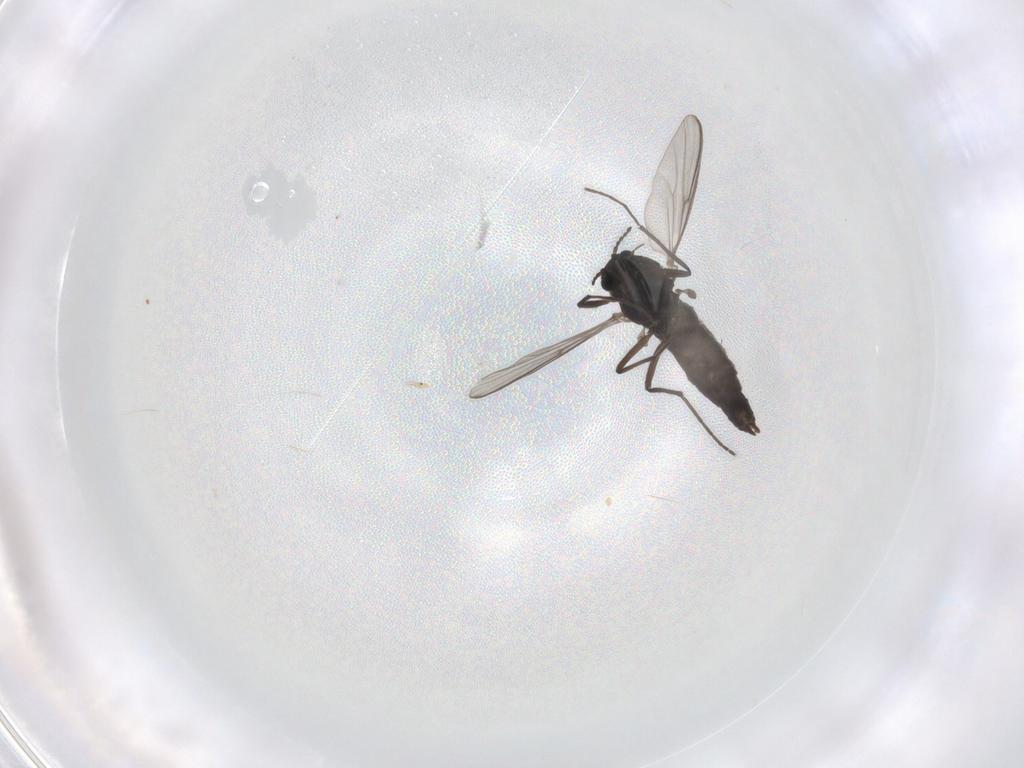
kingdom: Animalia
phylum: Arthropoda
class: Insecta
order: Diptera
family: Chironomidae
